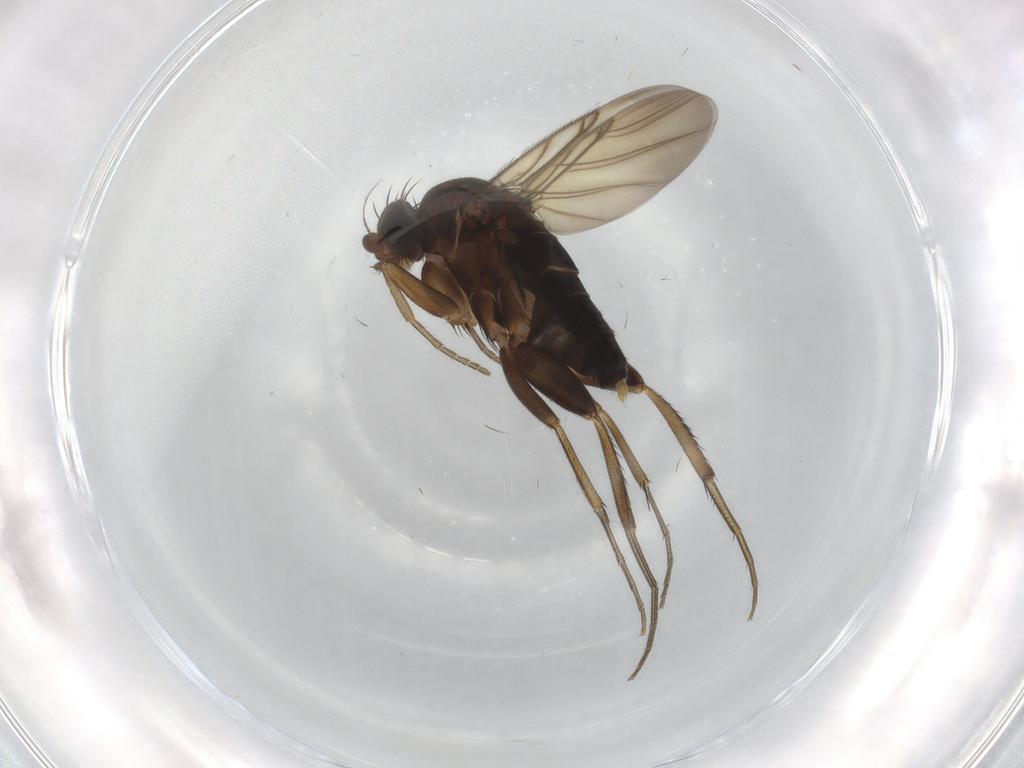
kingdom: Animalia
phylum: Arthropoda
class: Insecta
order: Diptera
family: Phoridae
